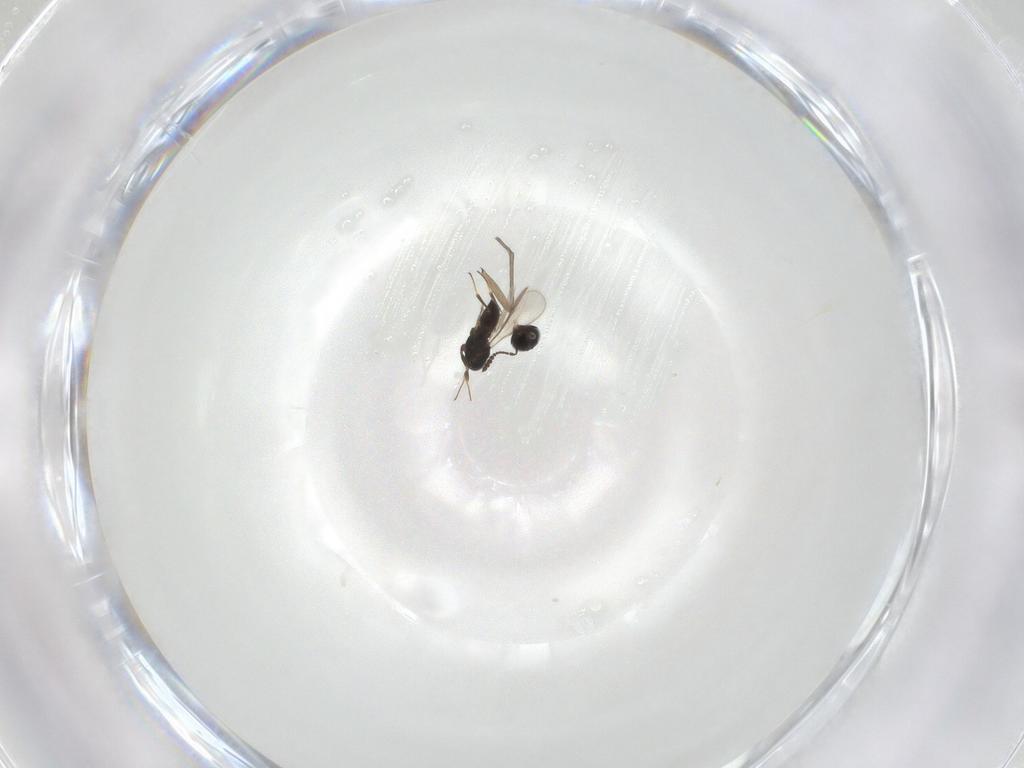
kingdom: Animalia
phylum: Arthropoda
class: Insecta
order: Hymenoptera
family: Scelionidae
